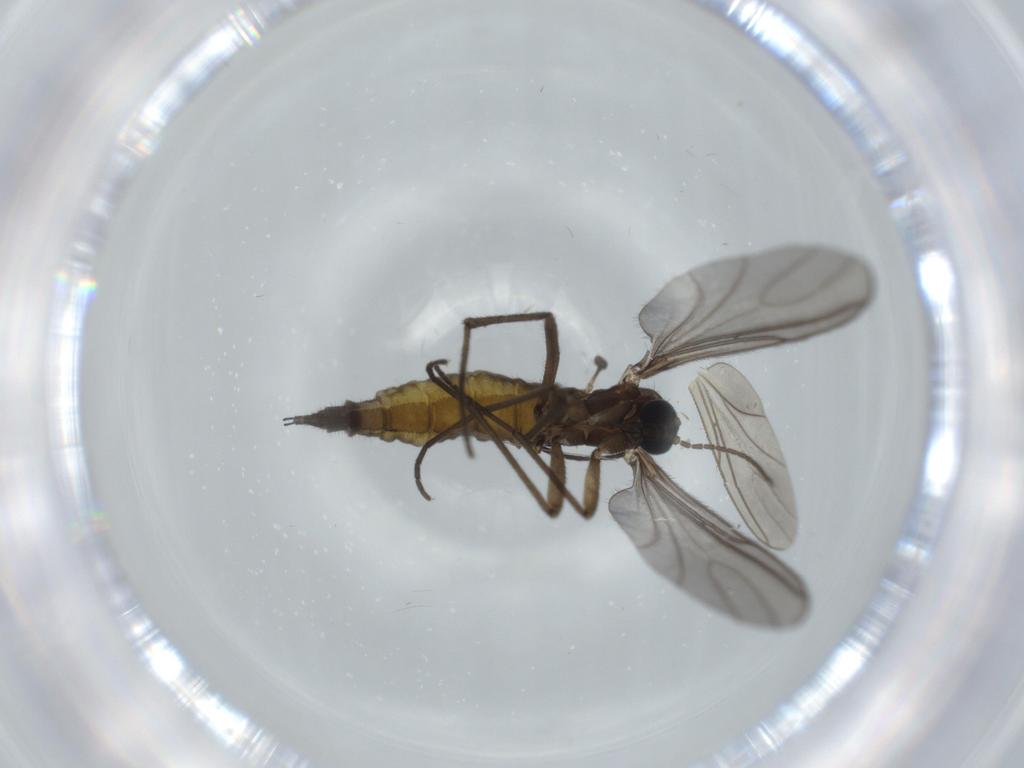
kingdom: Animalia
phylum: Arthropoda
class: Insecta
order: Diptera
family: Sciaridae
